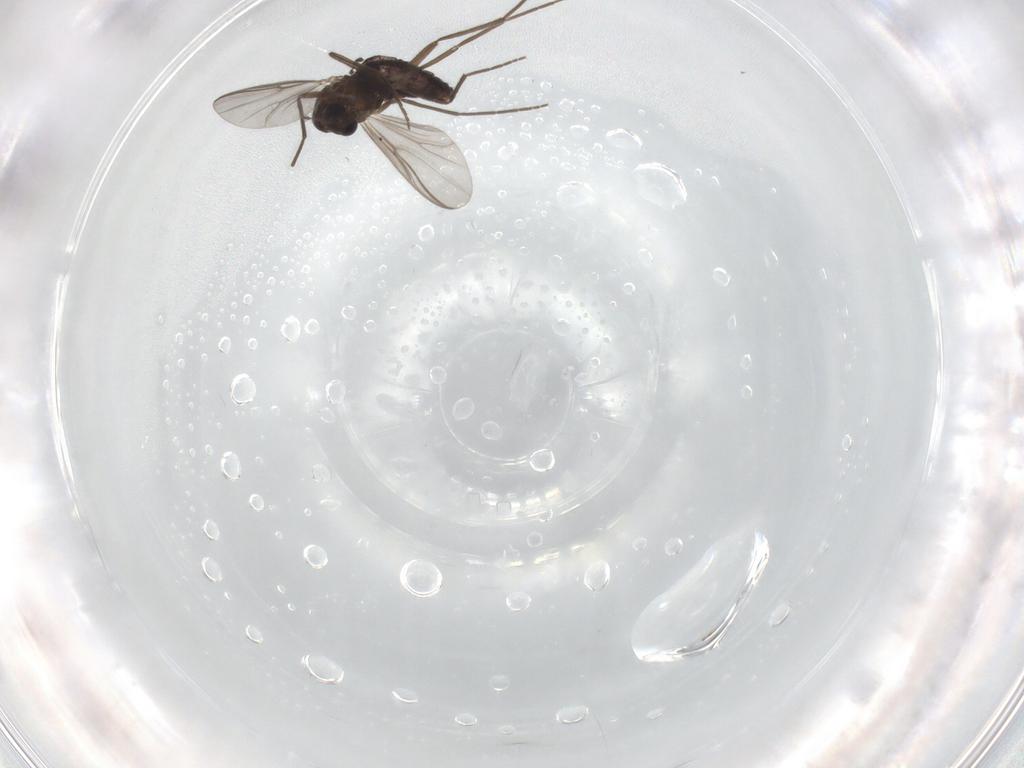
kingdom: Animalia
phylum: Arthropoda
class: Insecta
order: Diptera
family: Chironomidae
